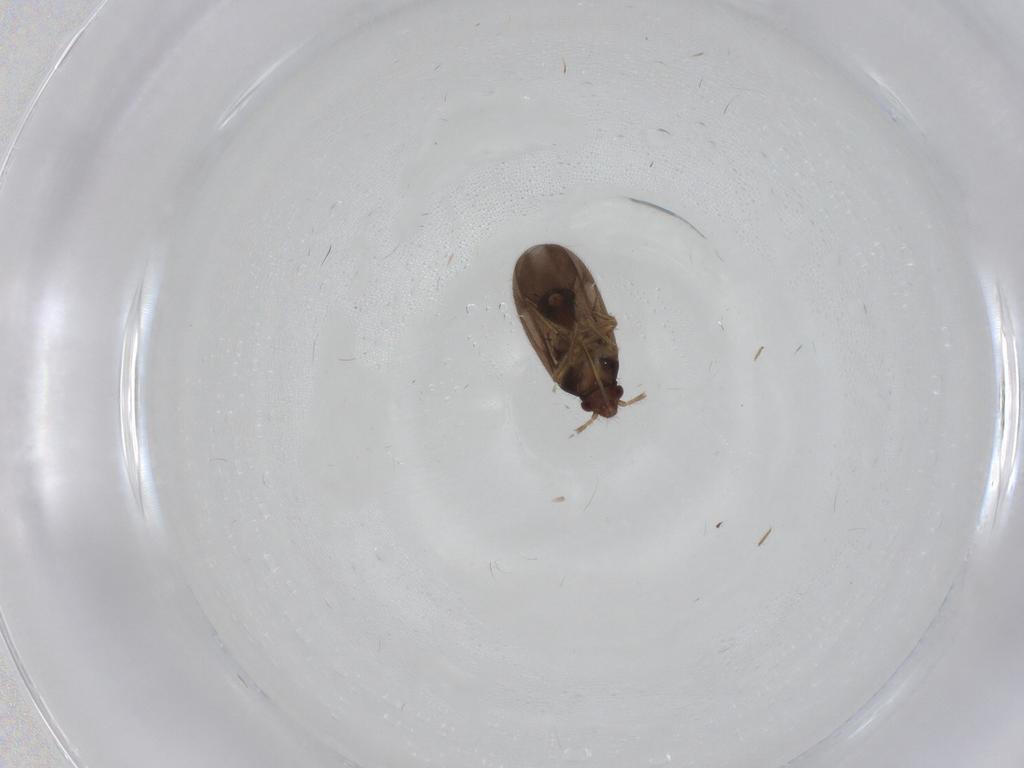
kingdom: Animalia
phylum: Arthropoda
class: Insecta
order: Hemiptera
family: Ceratocombidae
